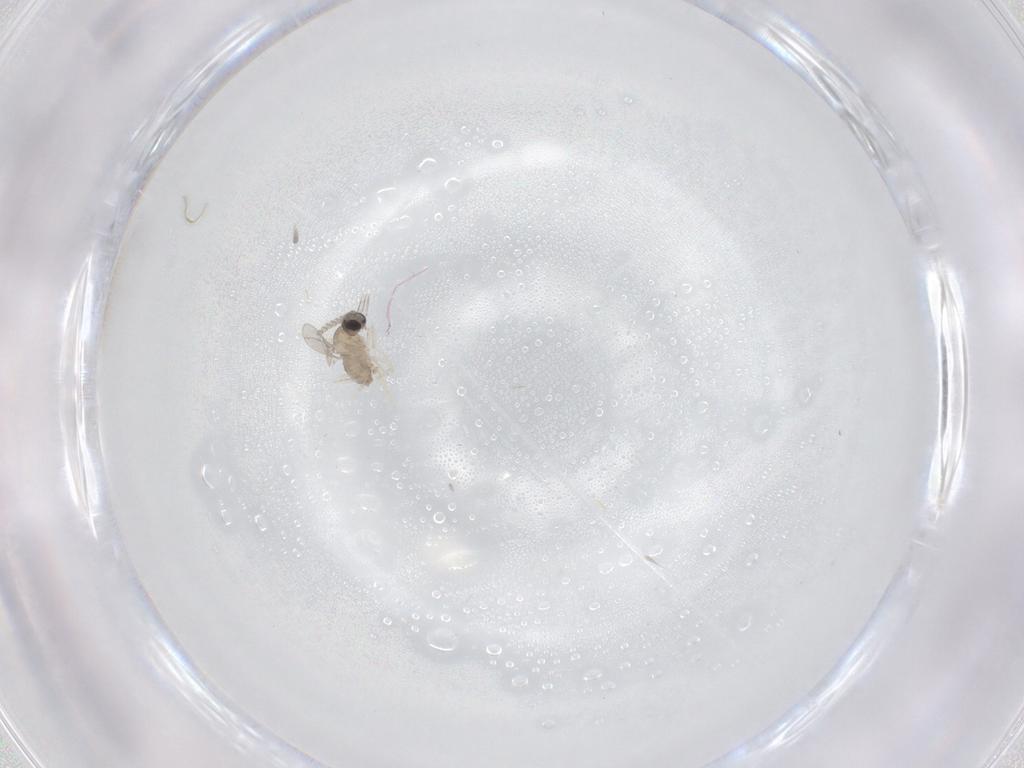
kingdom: Animalia
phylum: Arthropoda
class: Insecta
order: Diptera
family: Cecidomyiidae
